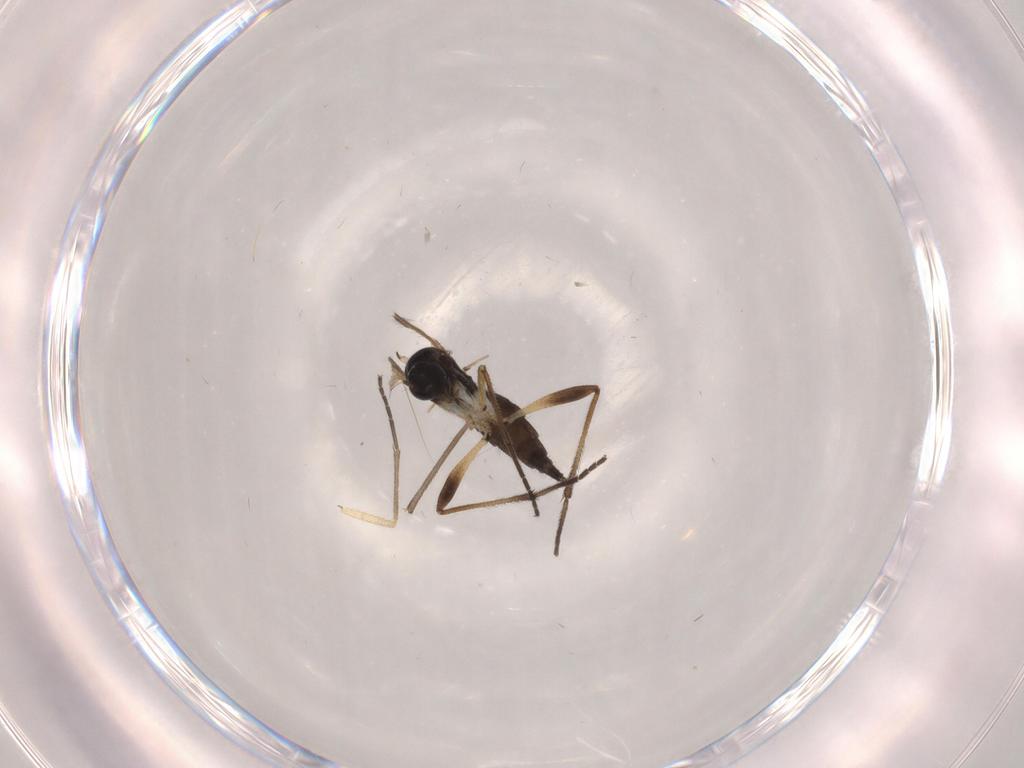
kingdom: Animalia
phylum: Arthropoda
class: Insecta
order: Diptera
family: Sciaridae
